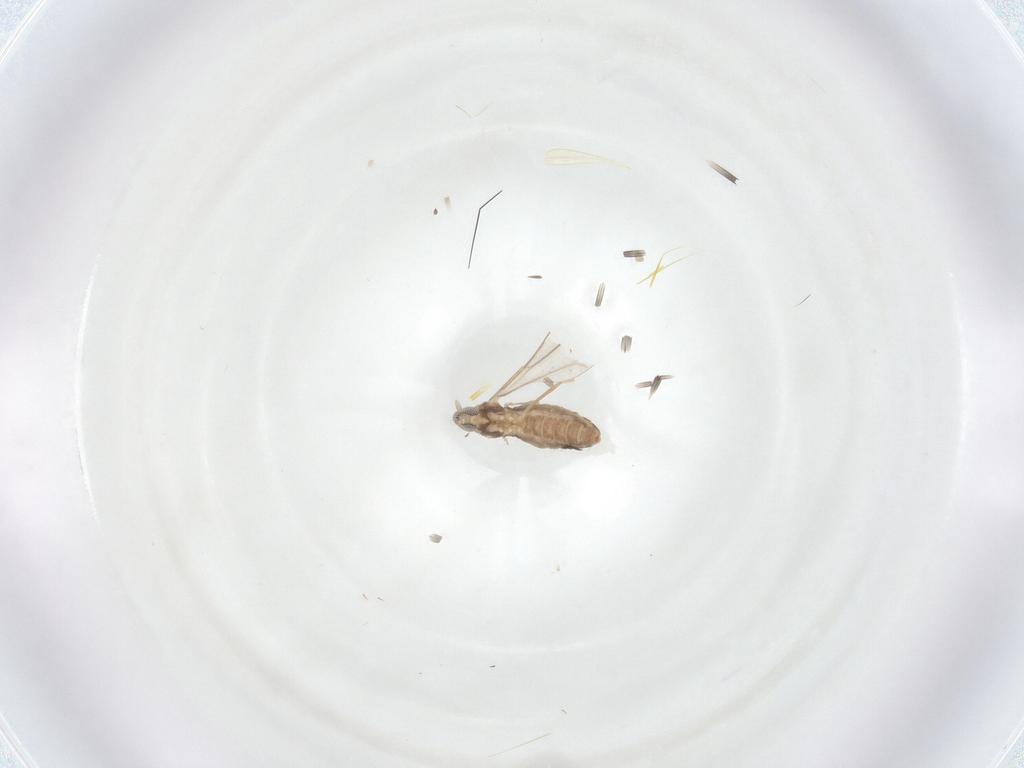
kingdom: Animalia
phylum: Arthropoda
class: Insecta
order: Diptera
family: Cecidomyiidae
